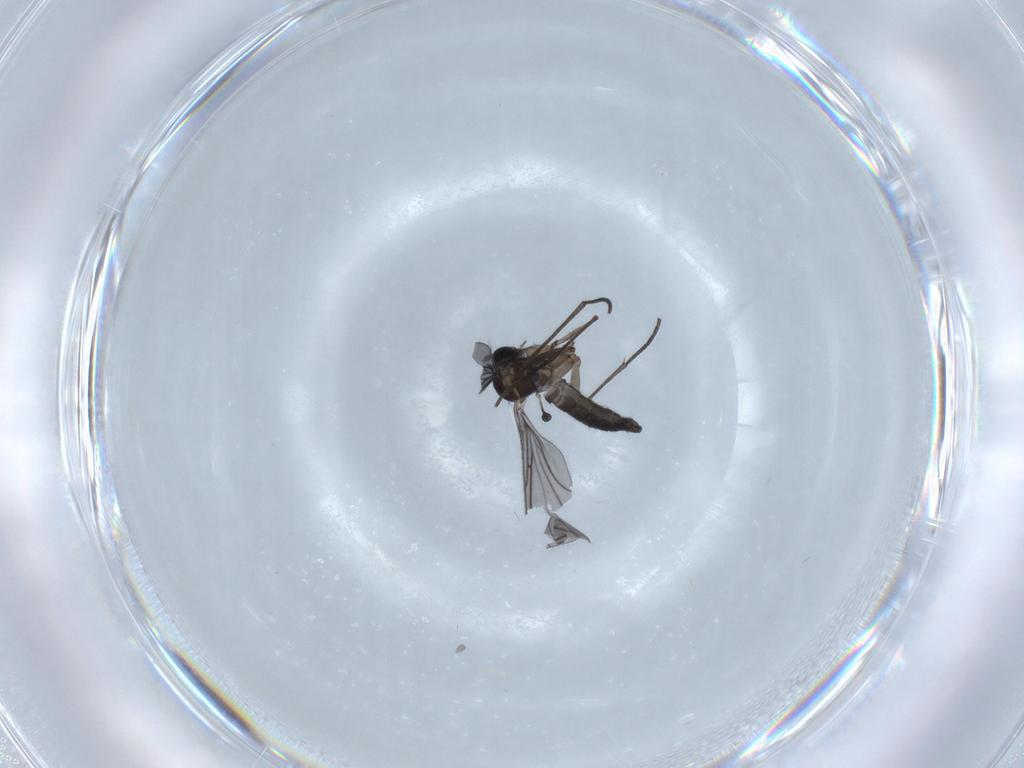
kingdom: Animalia
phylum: Arthropoda
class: Insecta
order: Diptera
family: Sciaridae
